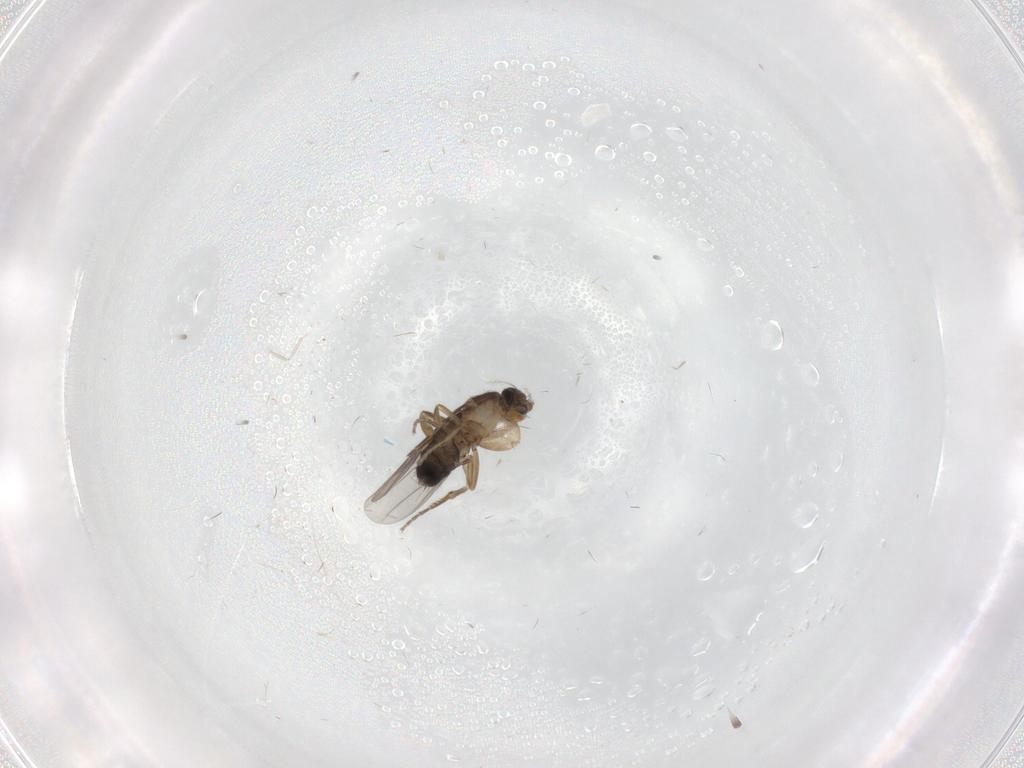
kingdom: Animalia
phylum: Arthropoda
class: Insecta
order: Diptera
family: Phoridae
